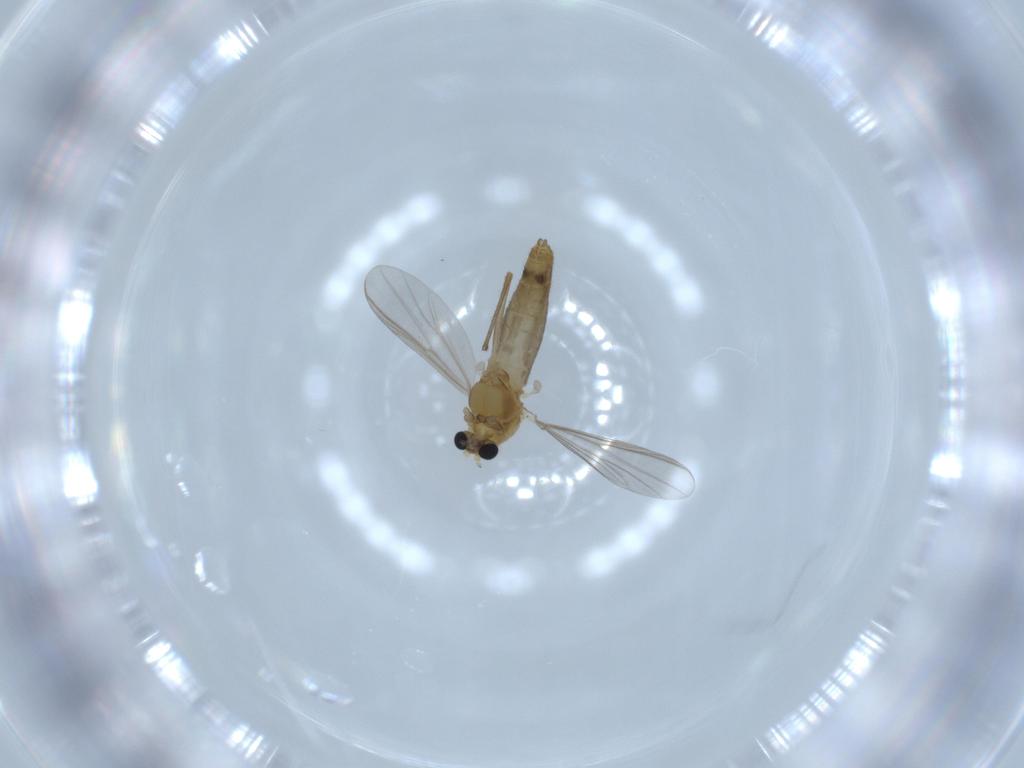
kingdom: Animalia
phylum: Arthropoda
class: Insecta
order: Diptera
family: Chironomidae
